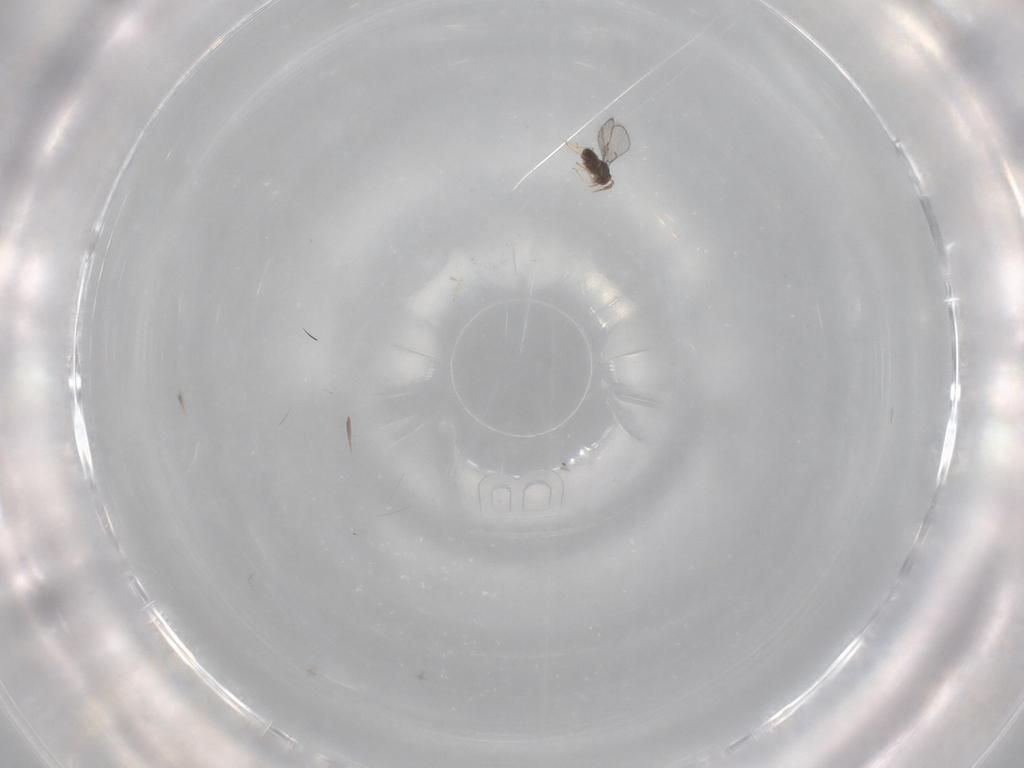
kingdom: Animalia
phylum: Arthropoda
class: Insecta
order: Hymenoptera
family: Trichogrammatidae
